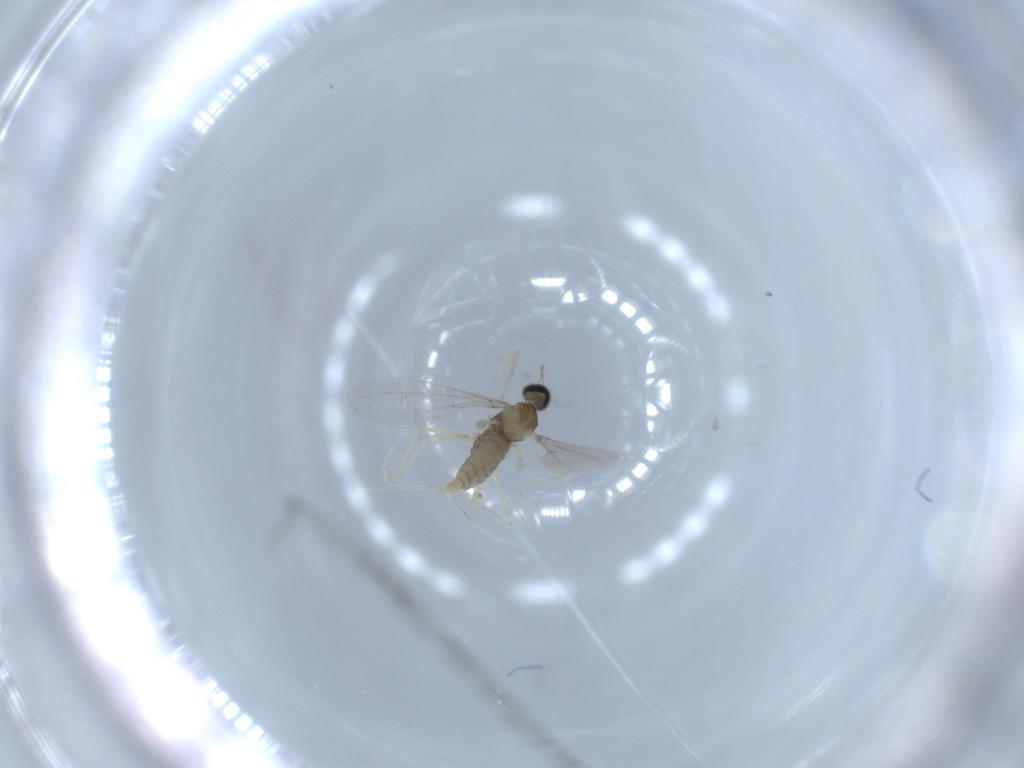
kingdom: Animalia
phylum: Arthropoda
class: Insecta
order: Diptera
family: Cecidomyiidae
